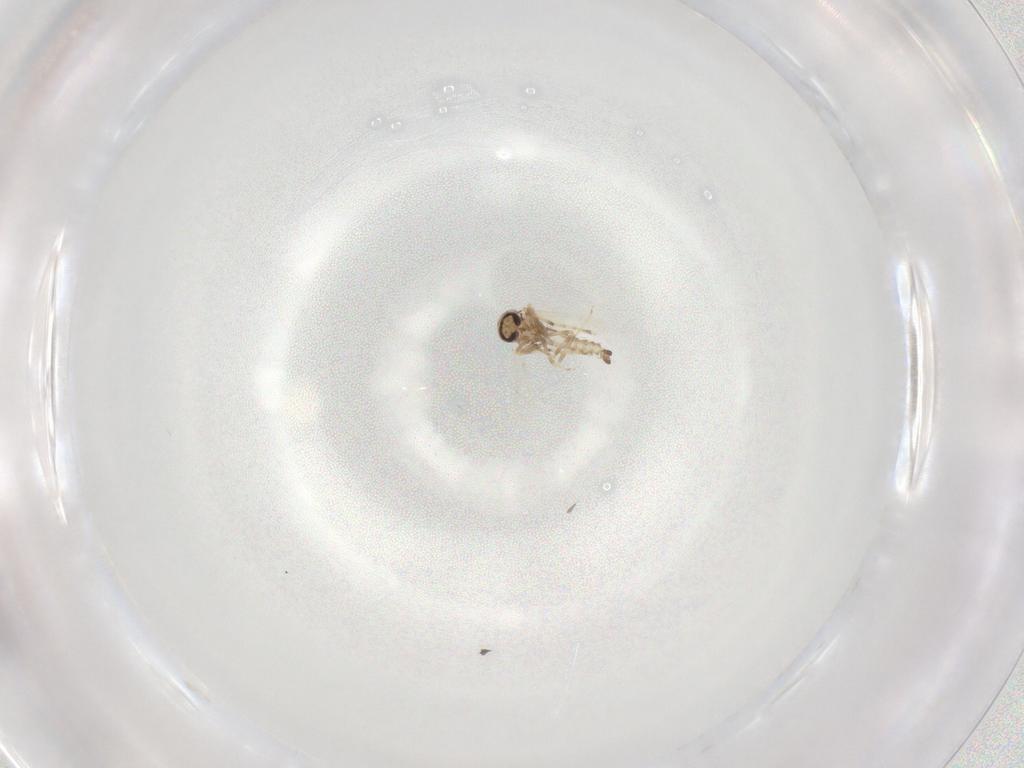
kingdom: Animalia
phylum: Arthropoda
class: Insecta
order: Diptera
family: Ceratopogonidae
